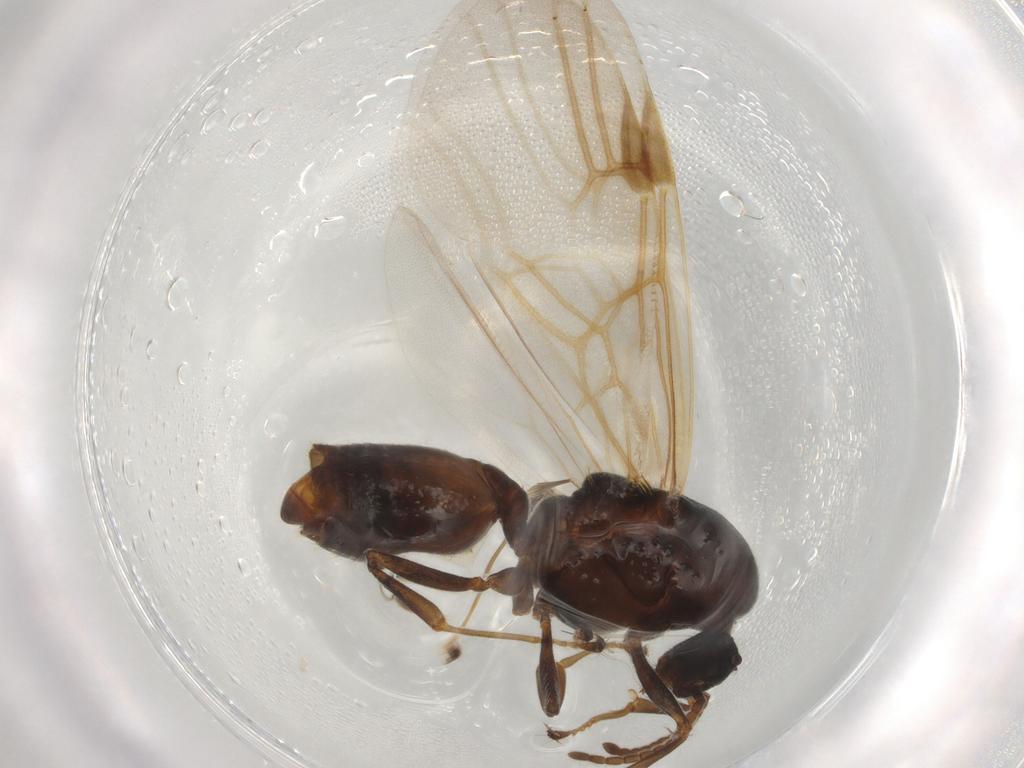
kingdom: Animalia
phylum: Arthropoda
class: Insecta
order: Hymenoptera
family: Formicidae
